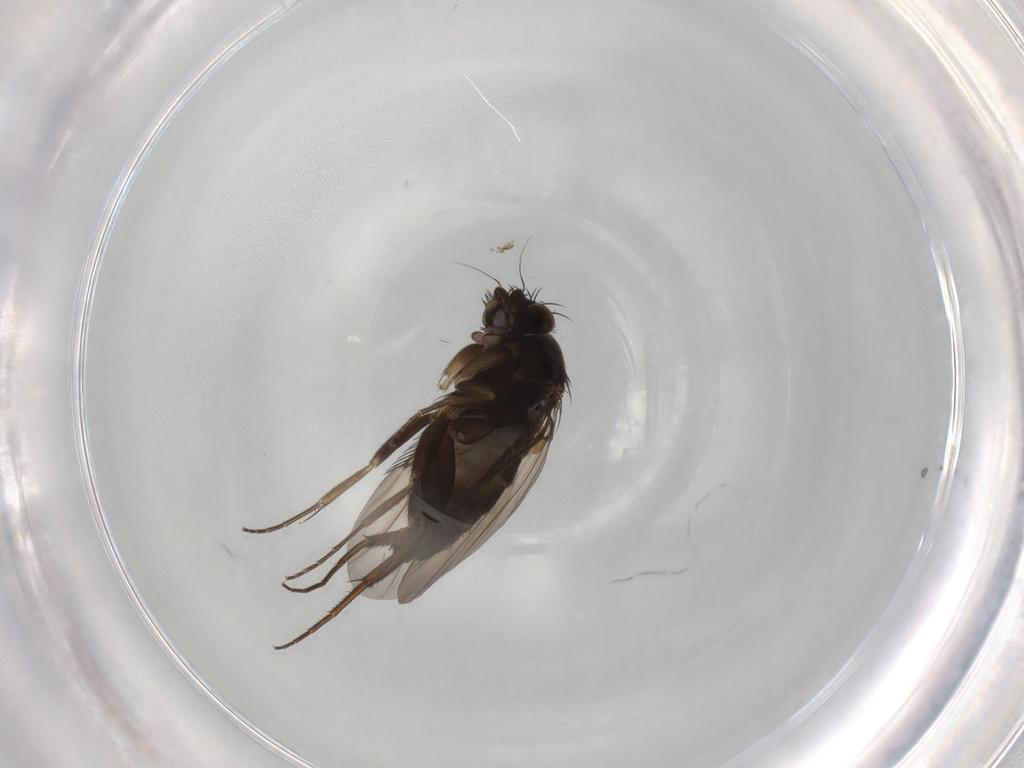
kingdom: Animalia
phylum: Arthropoda
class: Insecta
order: Diptera
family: Phoridae
